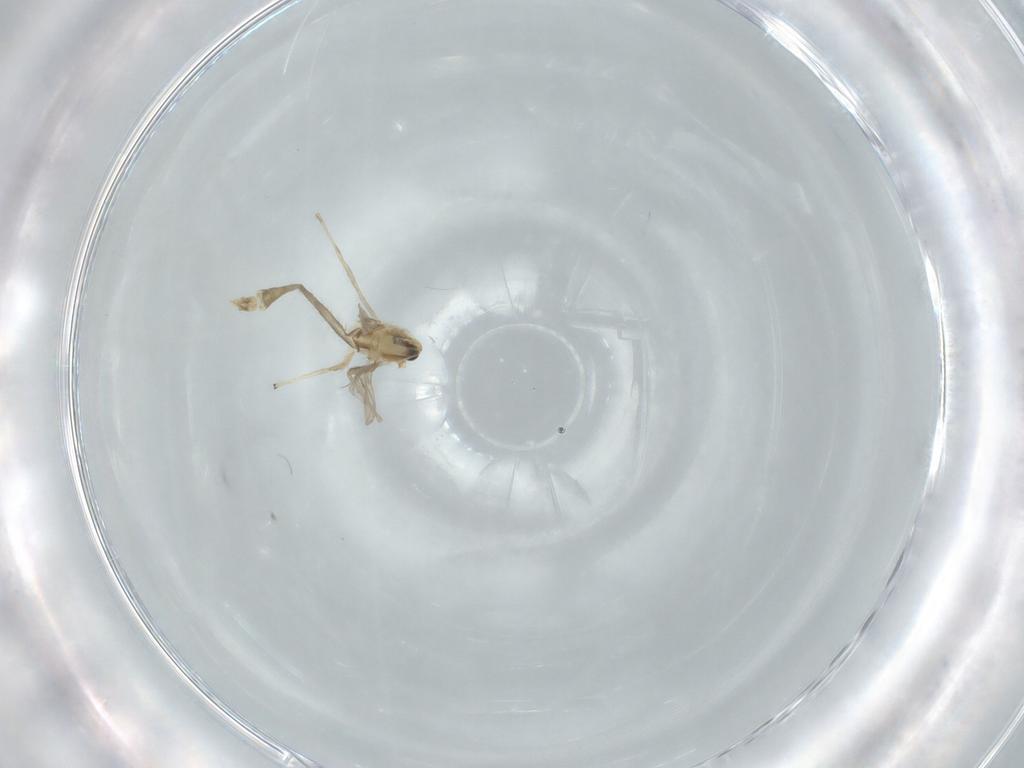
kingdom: Animalia
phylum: Arthropoda
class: Insecta
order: Diptera
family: Chironomidae
